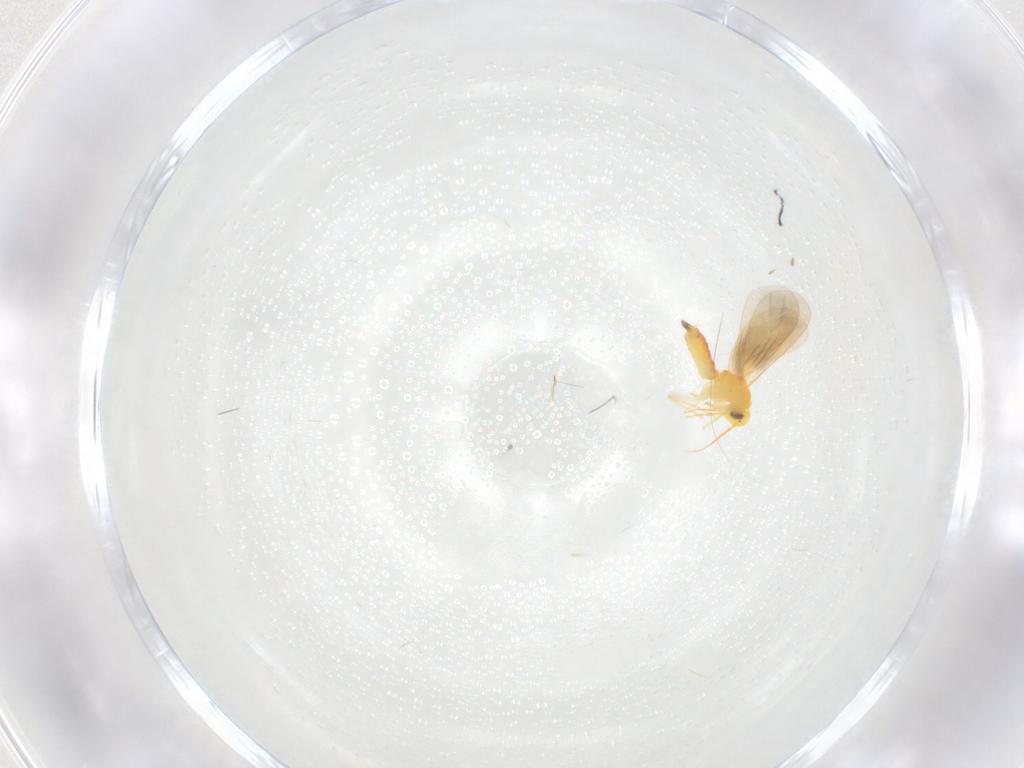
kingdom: Animalia
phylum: Arthropoda
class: Insecta
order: Hemiptera
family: Aleyrodidae
